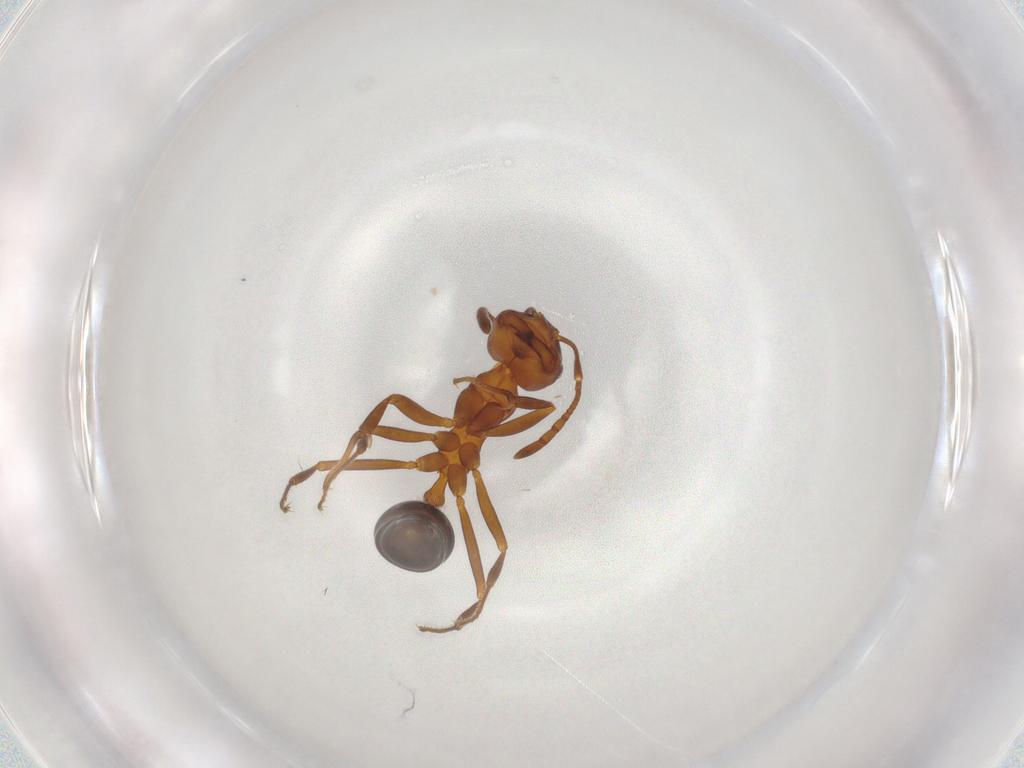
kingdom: Animalia
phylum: Arthropoda
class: Insecta
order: Hymenoptera
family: Formicidae
